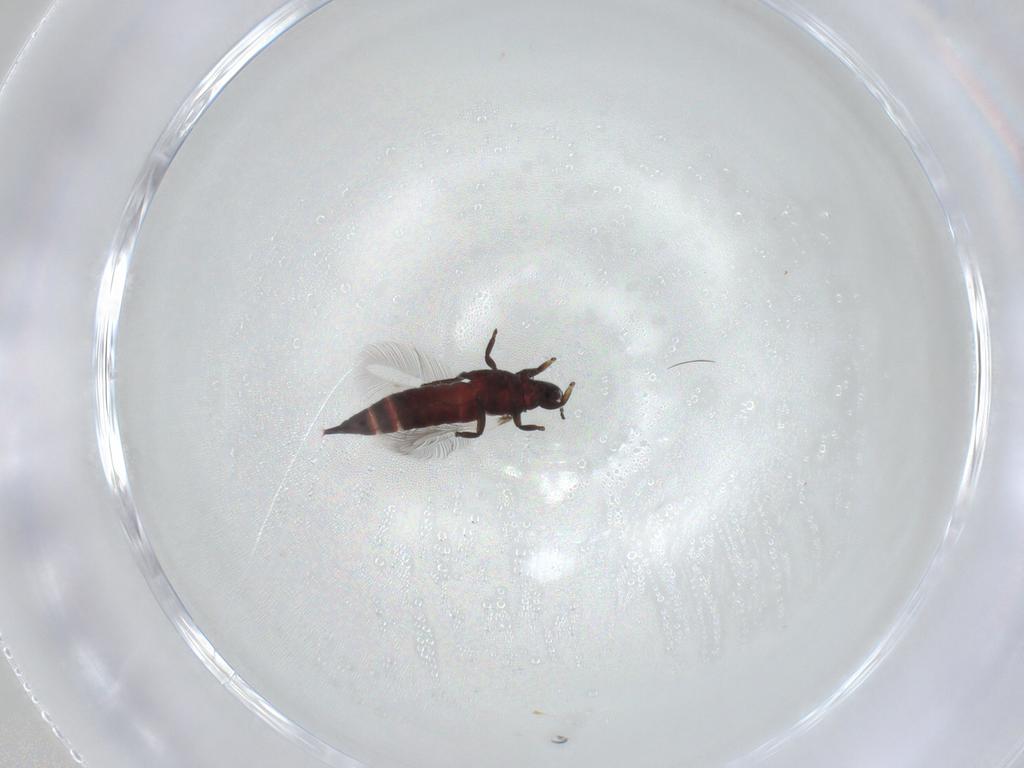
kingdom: Animalia
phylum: Arthropoda
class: Insecta
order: Thysanoptera
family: Phlaeothripidae
